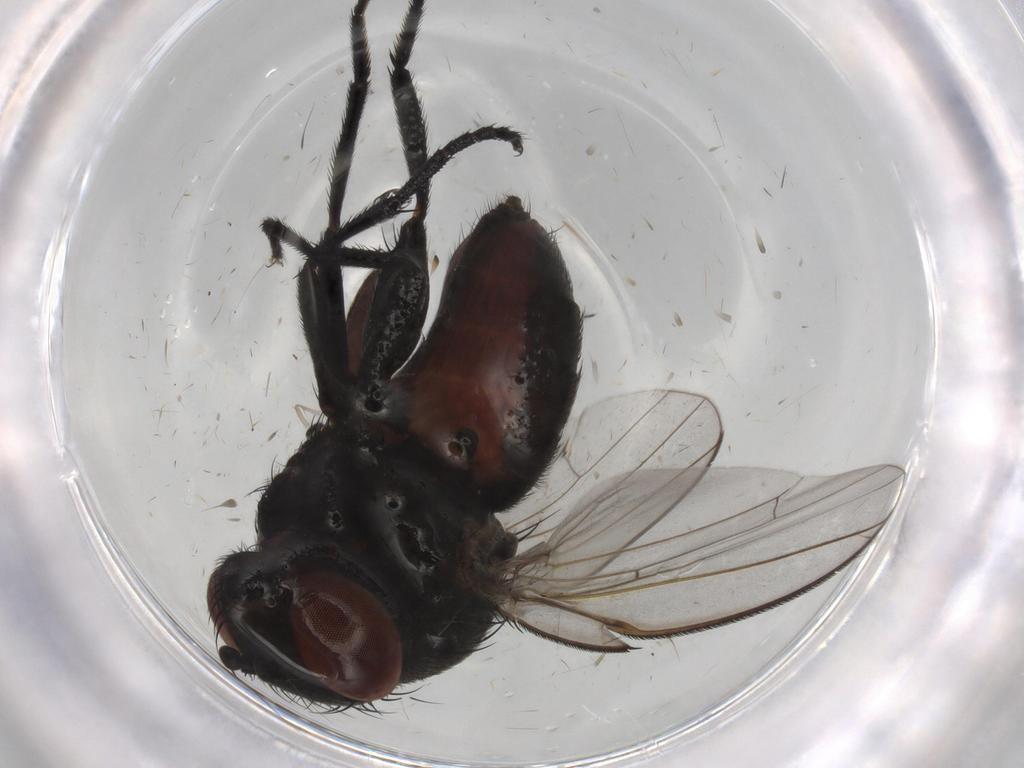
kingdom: Animalia
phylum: Arthropoda
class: Insecta
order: Diptera
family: Milichiidae
